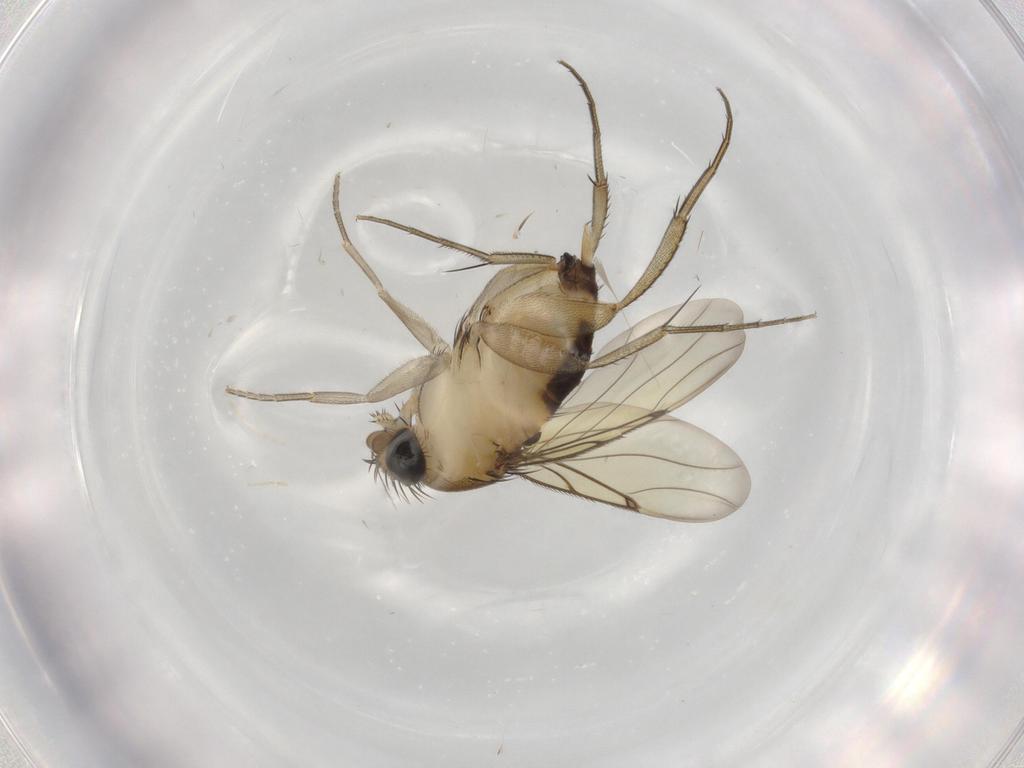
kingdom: Animalia
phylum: Arthropoda
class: Insecta
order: Diptera
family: Phoridae
